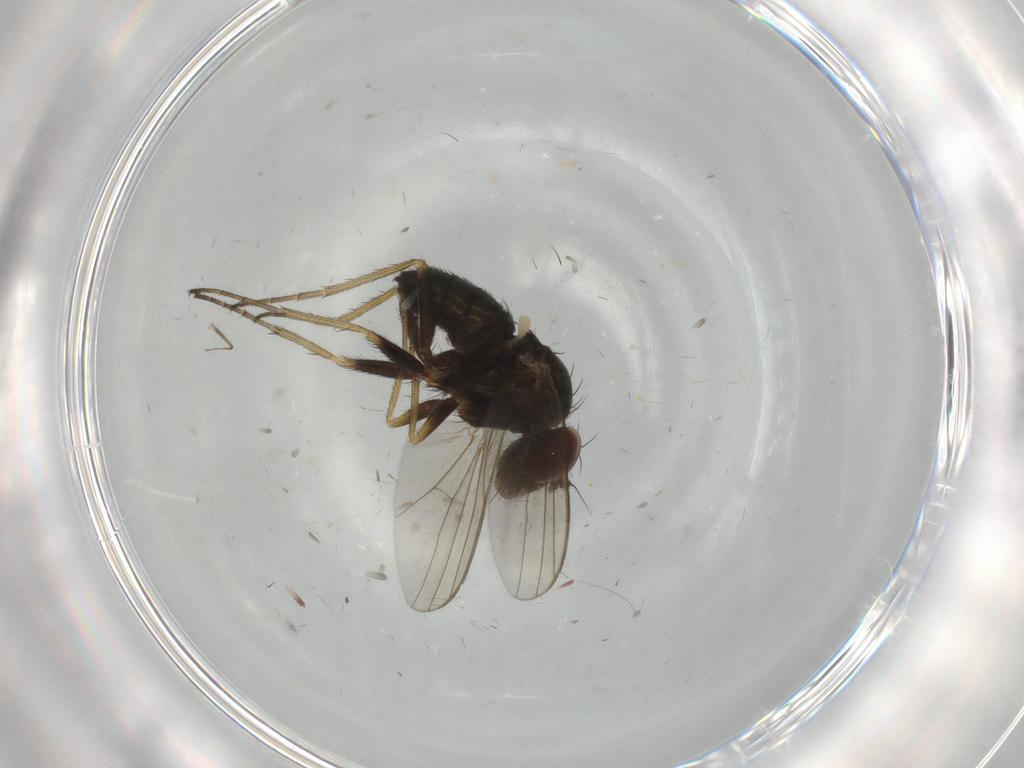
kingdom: Animalia
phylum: Arthropoda
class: Insecta
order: Diptera
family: Dolichopodidae
